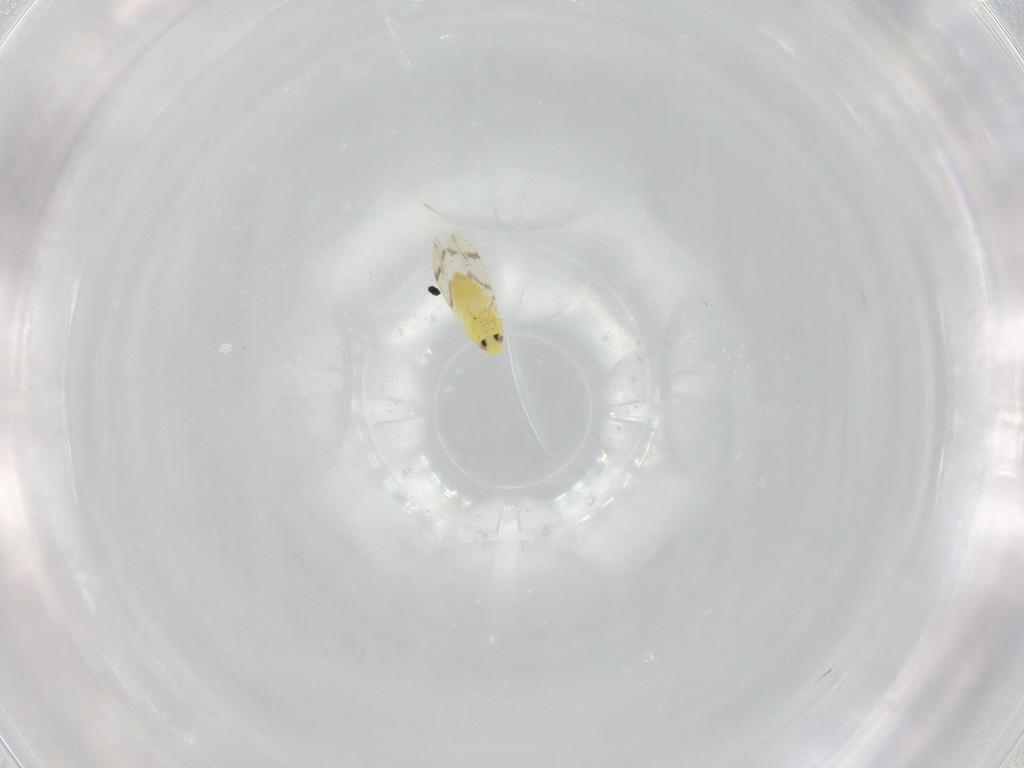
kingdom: Animalia
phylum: Arthropoda
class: Insecta
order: Hemiptera
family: Aleyrodidae
